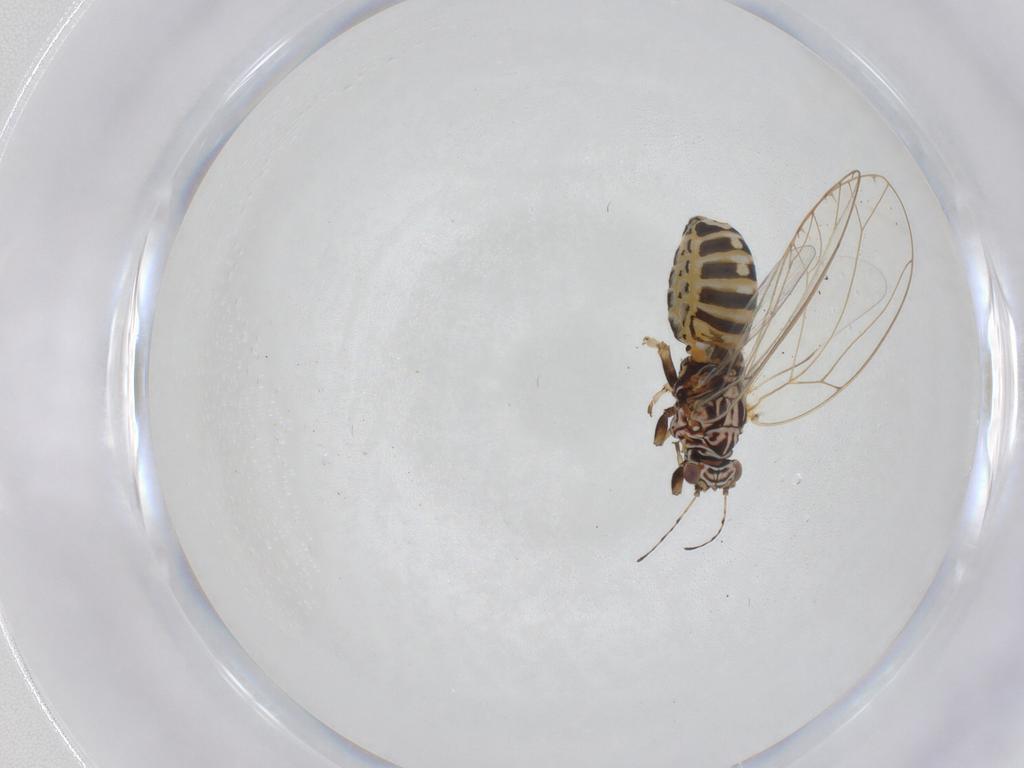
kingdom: Animalia
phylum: Arthropoda
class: Insecta
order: Hemiptera
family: Triozidae
